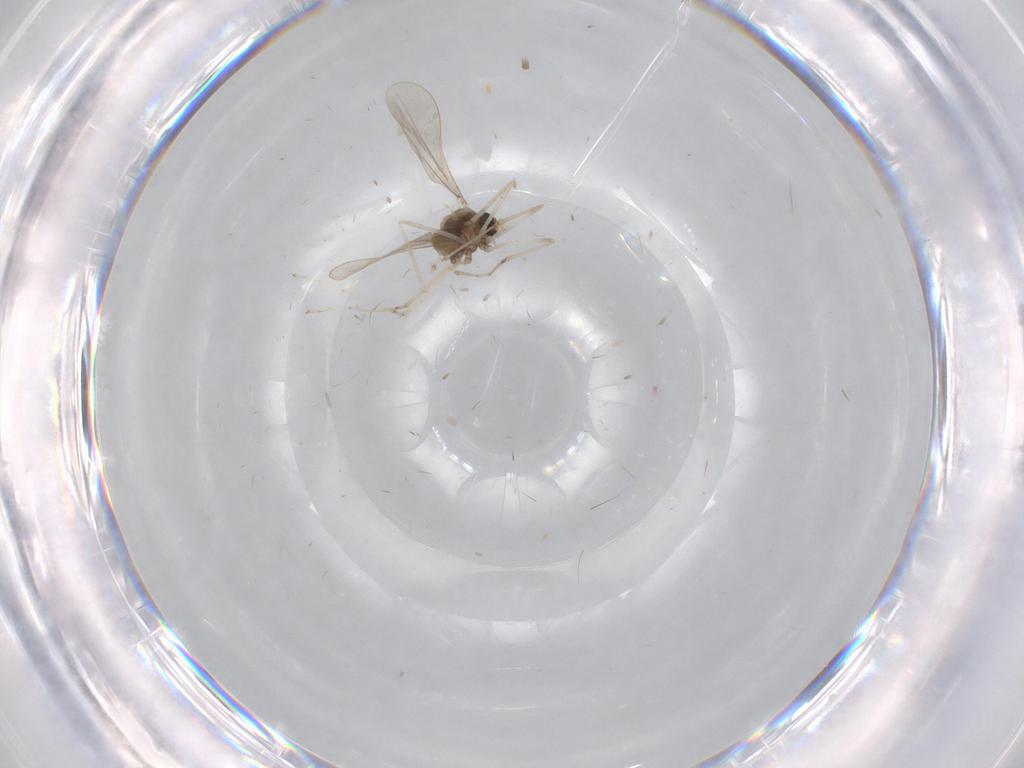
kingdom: Animalia
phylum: Arthropoda
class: Insecta
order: Diptera
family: Cecidomyiidae
